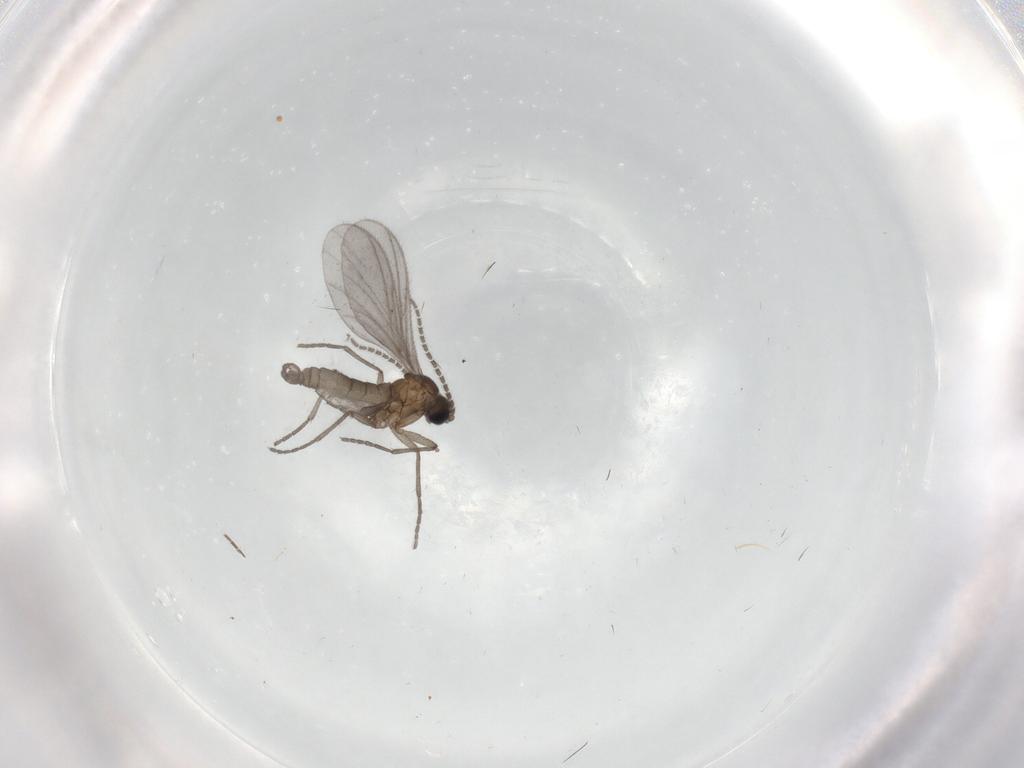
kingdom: Animalia
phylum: Arthropoda
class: Insecta
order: Diptera
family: Sciaridae
